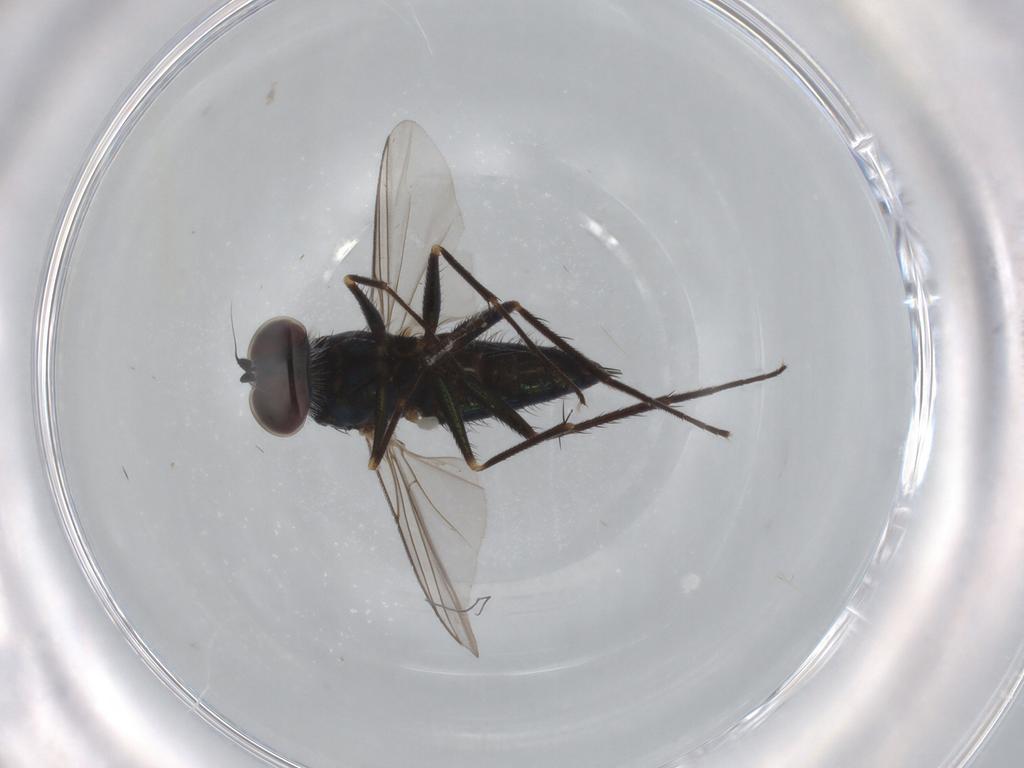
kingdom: Animalia
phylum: Arthropoda
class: Insecta
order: Diptera
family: Dolichopodidae
